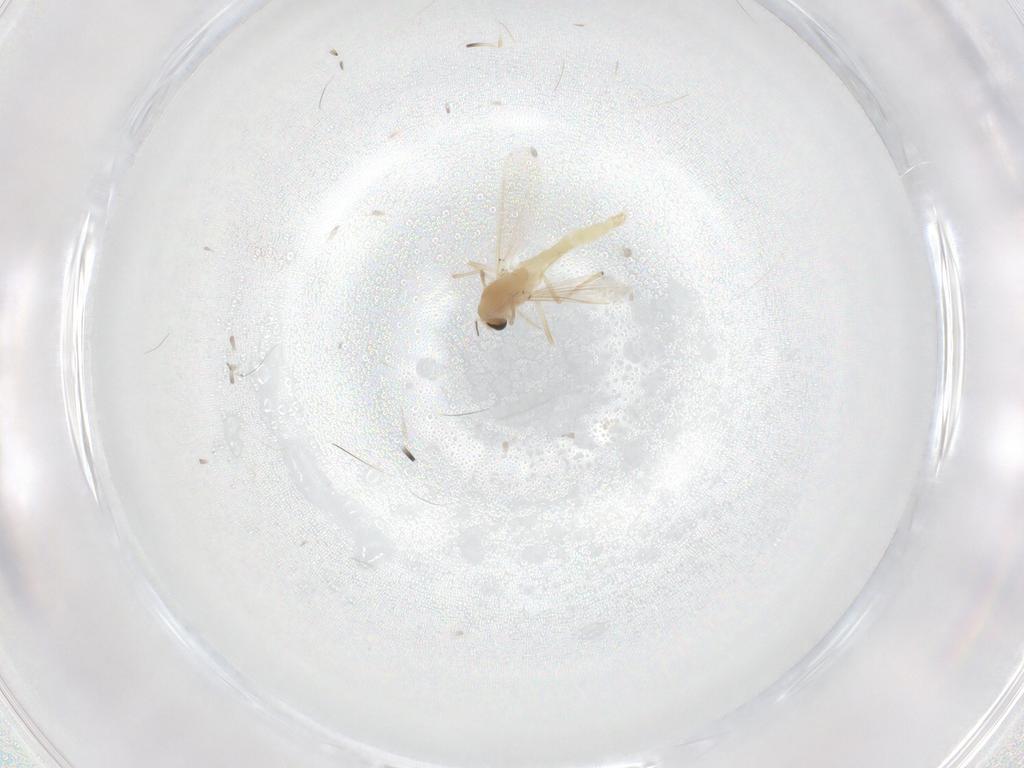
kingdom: Animalia
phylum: Arthropoda
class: Insecta
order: Diptera
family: Chironomidae
